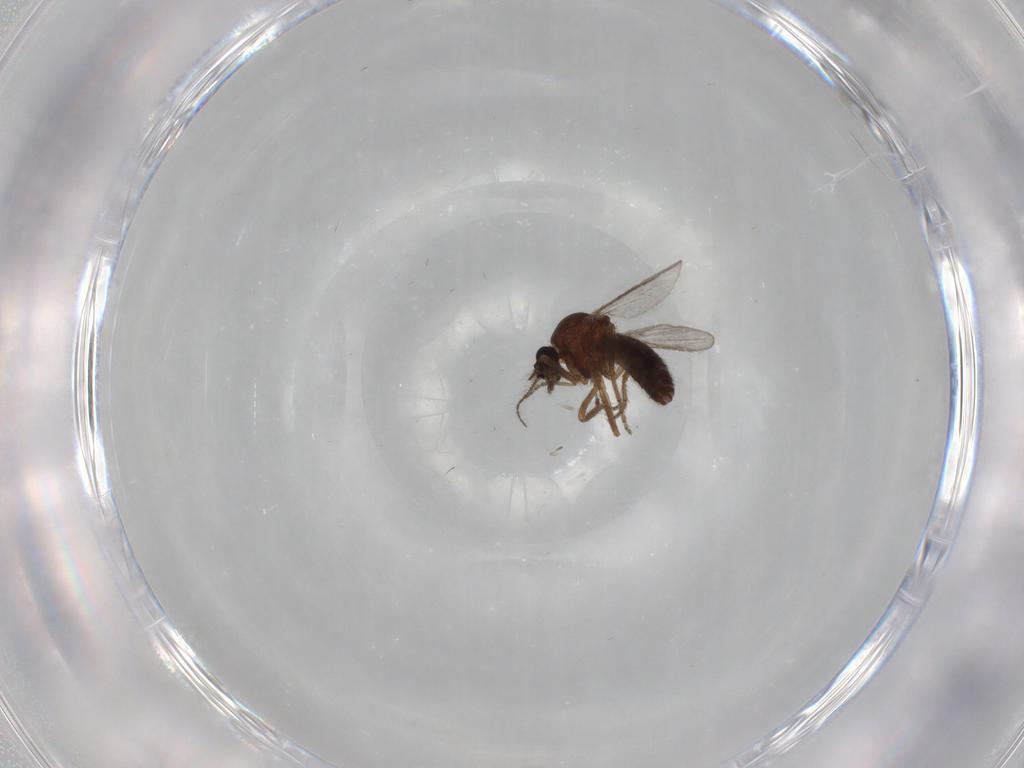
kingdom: Animalia
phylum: Arthropoda
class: Insecta
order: Diptera
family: Ceratopogonidae
